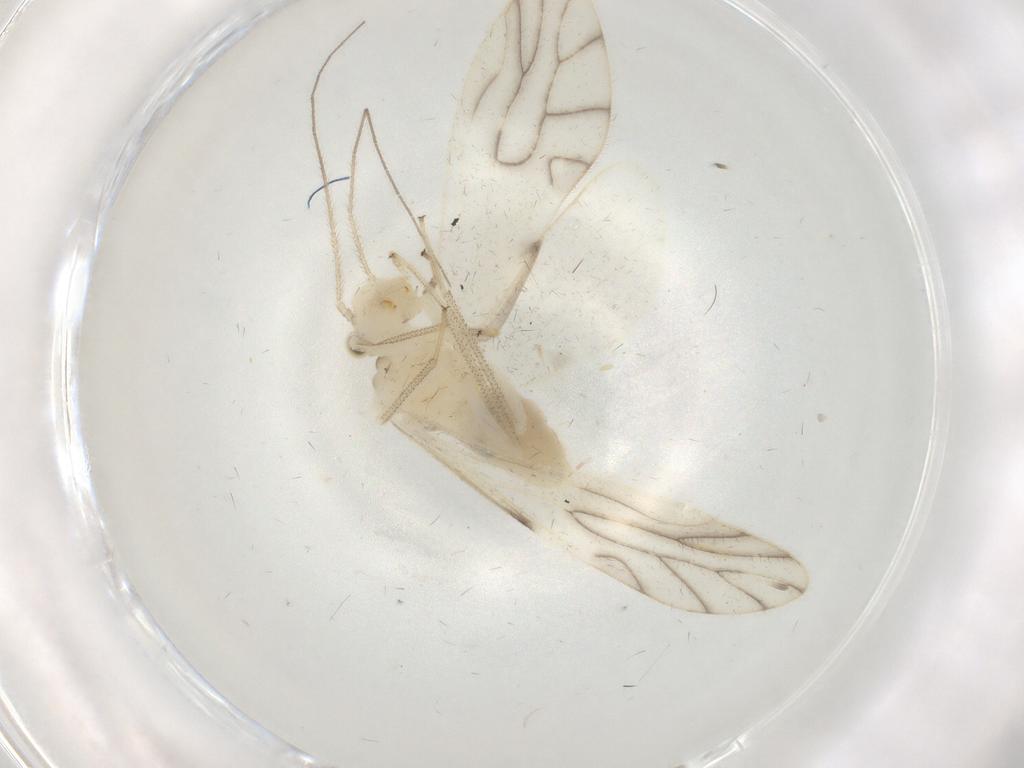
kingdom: Animalia
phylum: Arthropoda
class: Insecta
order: Psocodea
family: Caeciliusidae
